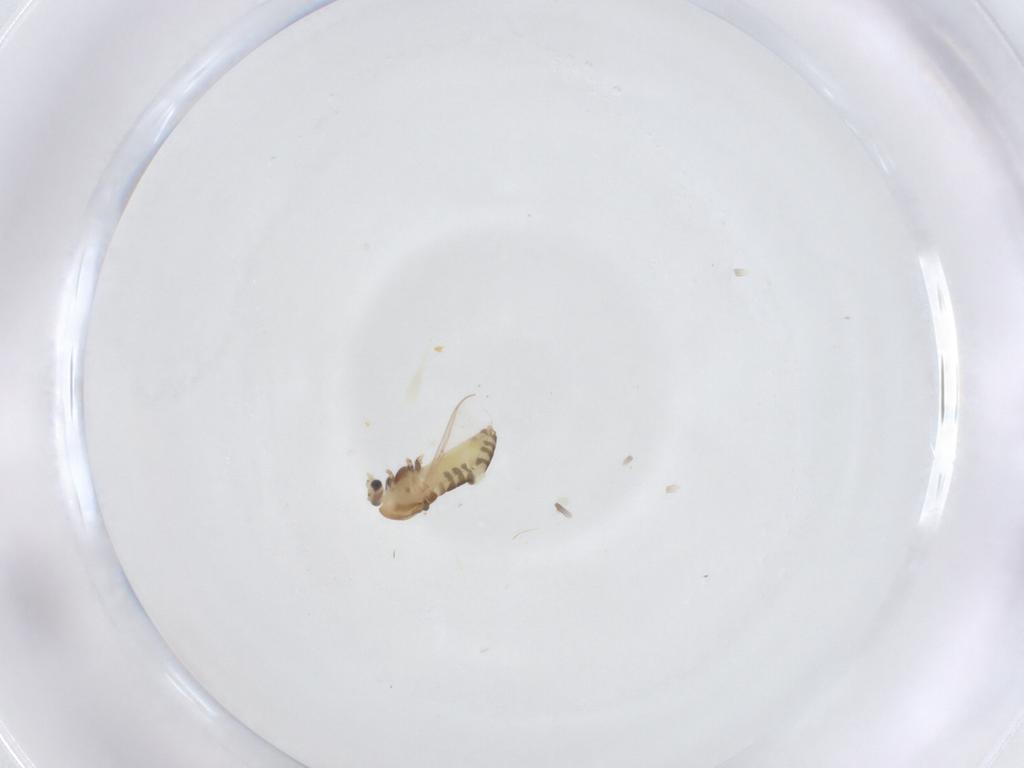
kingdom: Animalia
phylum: Arthropoda
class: Insecta
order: Diptera
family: Chironomidae
